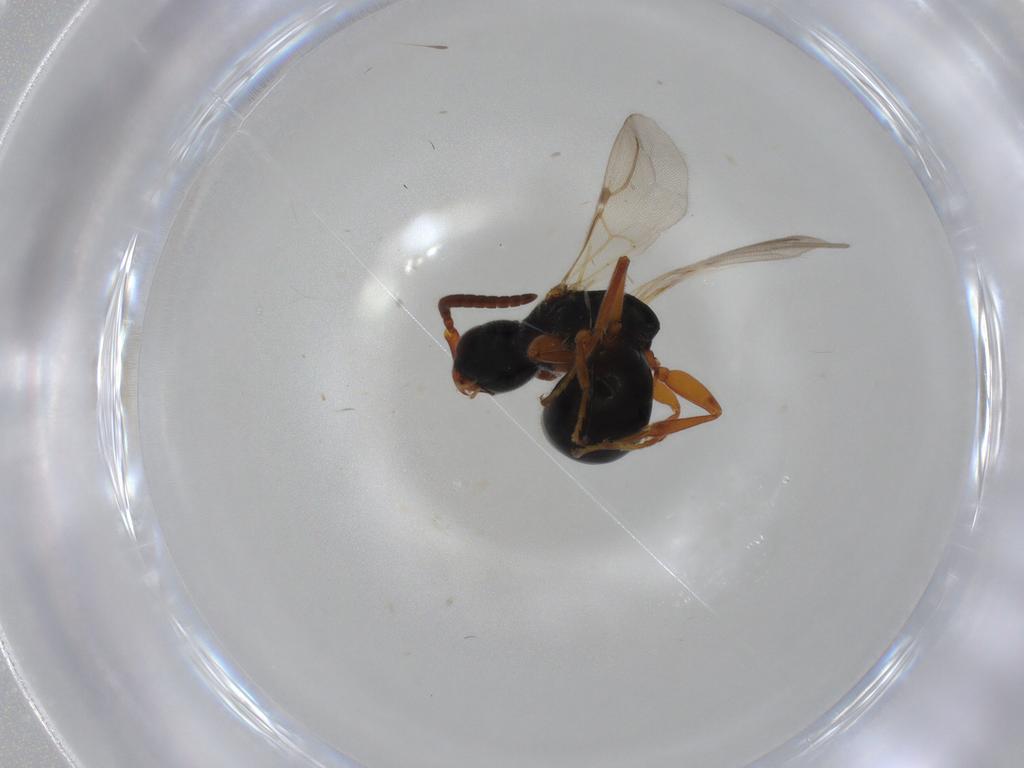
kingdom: Animalia
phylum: Arthropoda
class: Insecta
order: Hymenoptera
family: Bethylidae
